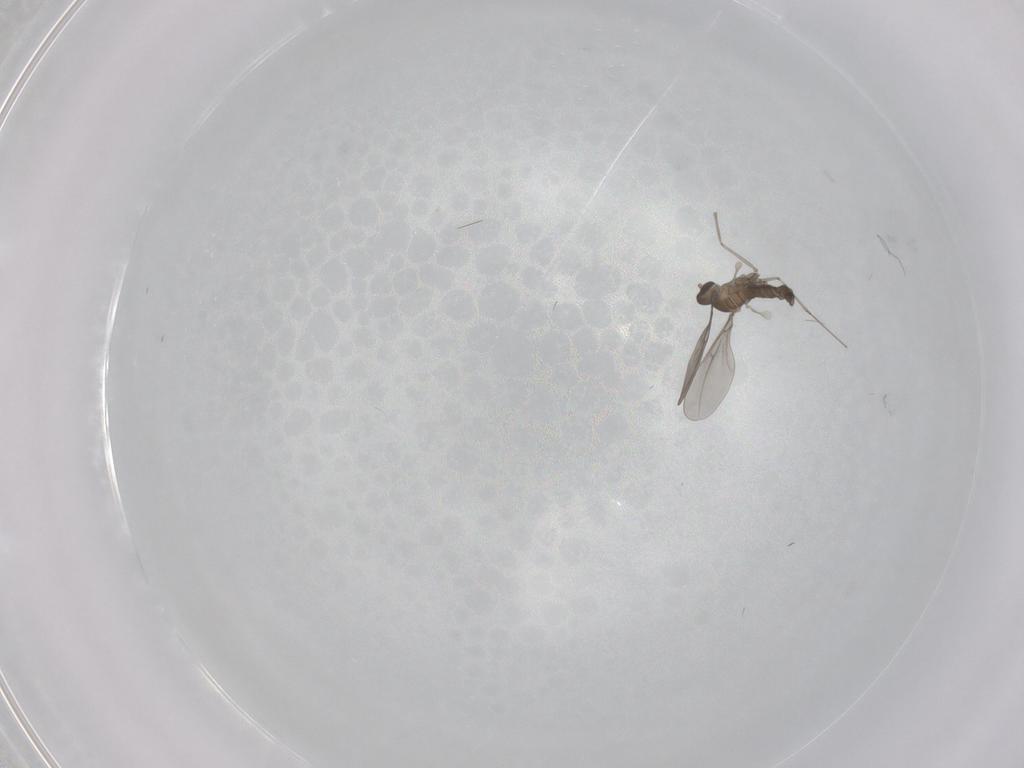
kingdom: Animalia
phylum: Arthropoda
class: Insecta
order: Diptera
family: Cecidomyiidae
